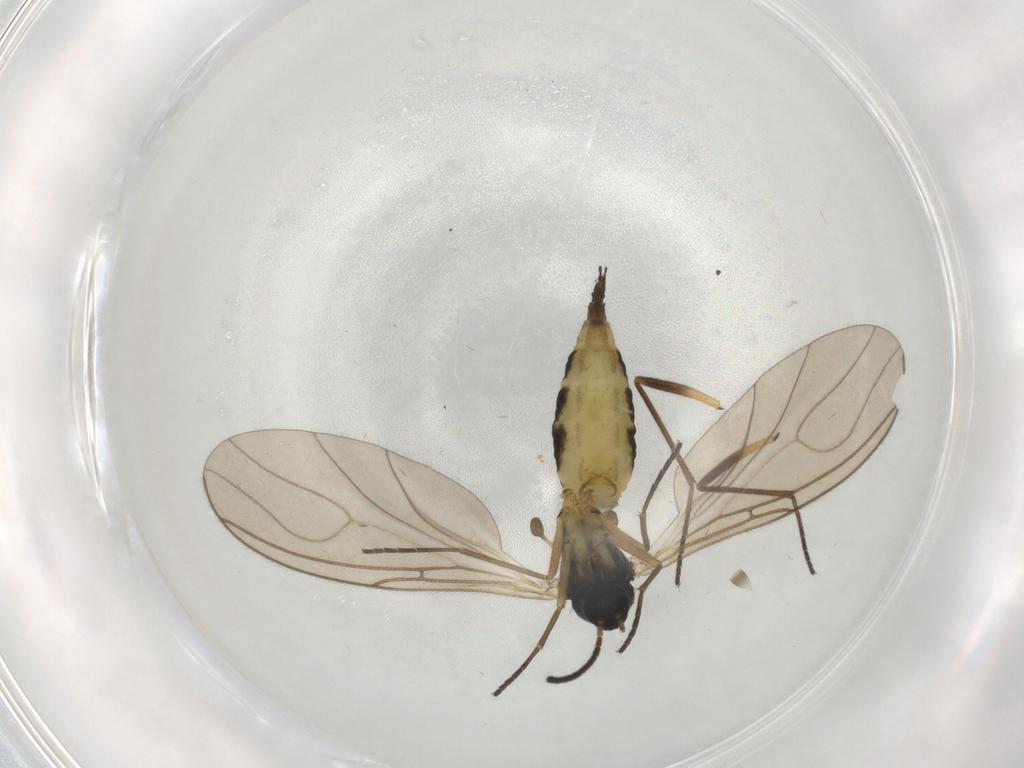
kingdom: Animalia
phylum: Arthropoda
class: Insecta
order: Diptera
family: Sciaridae
